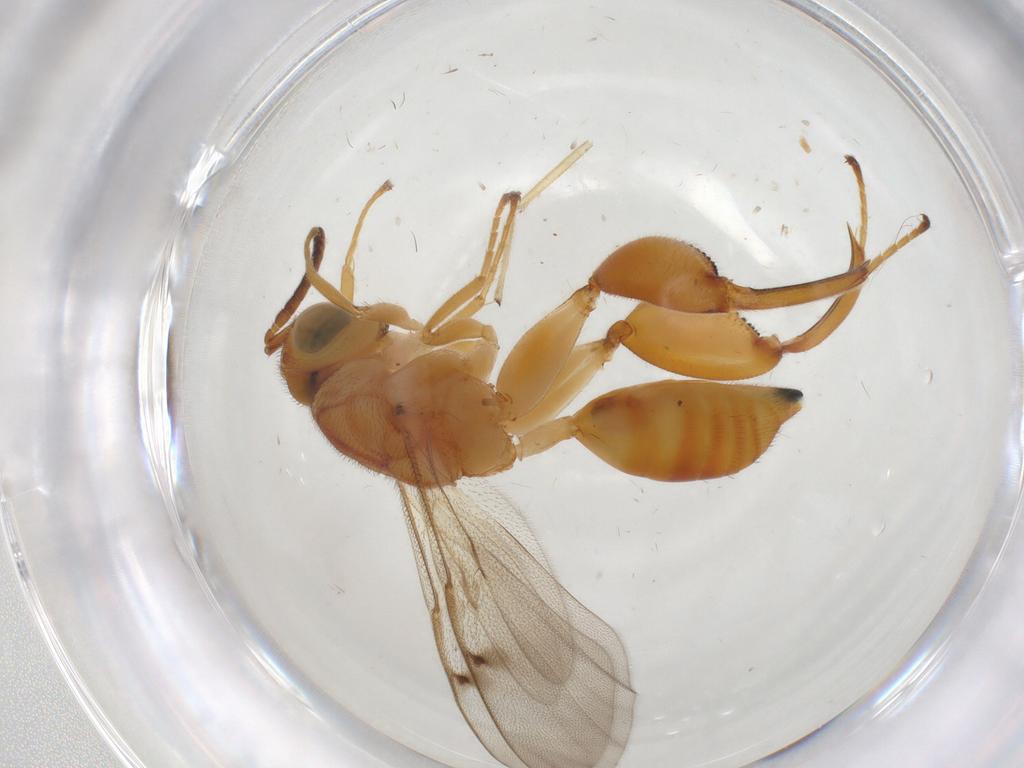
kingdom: Animalia
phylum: Arthropoda
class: Insecta
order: Hymenoptera
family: Chalcididae
